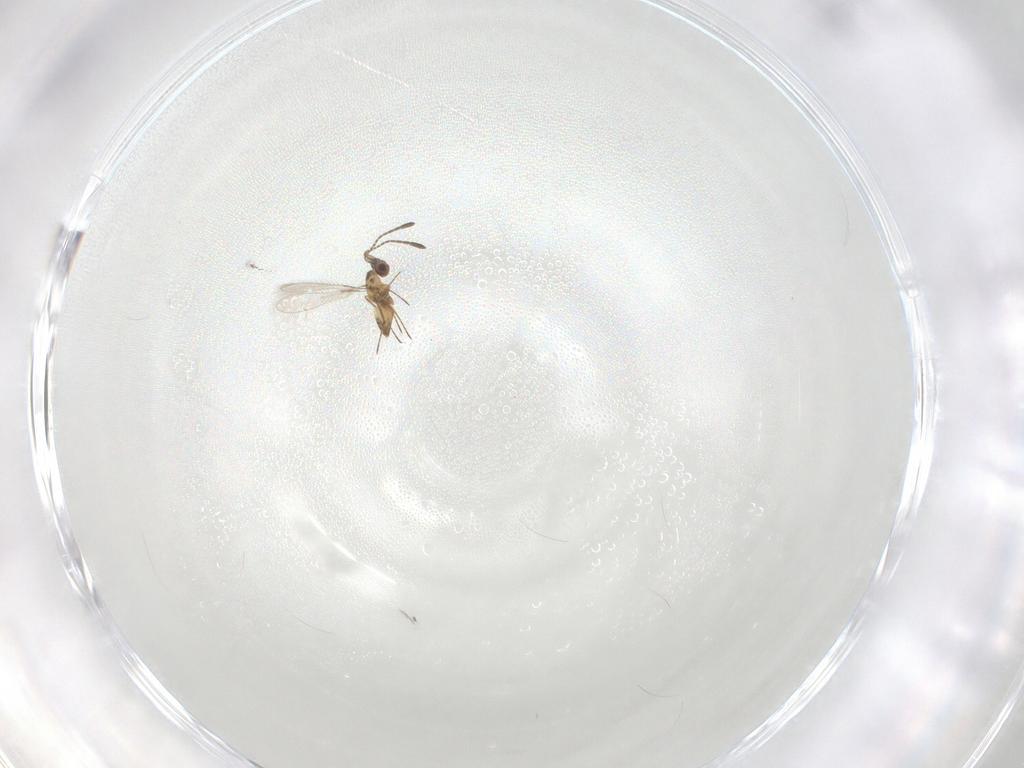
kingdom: Animalia
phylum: Arthropoda
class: Insecta
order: Hymenoptera
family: Mymaridae
